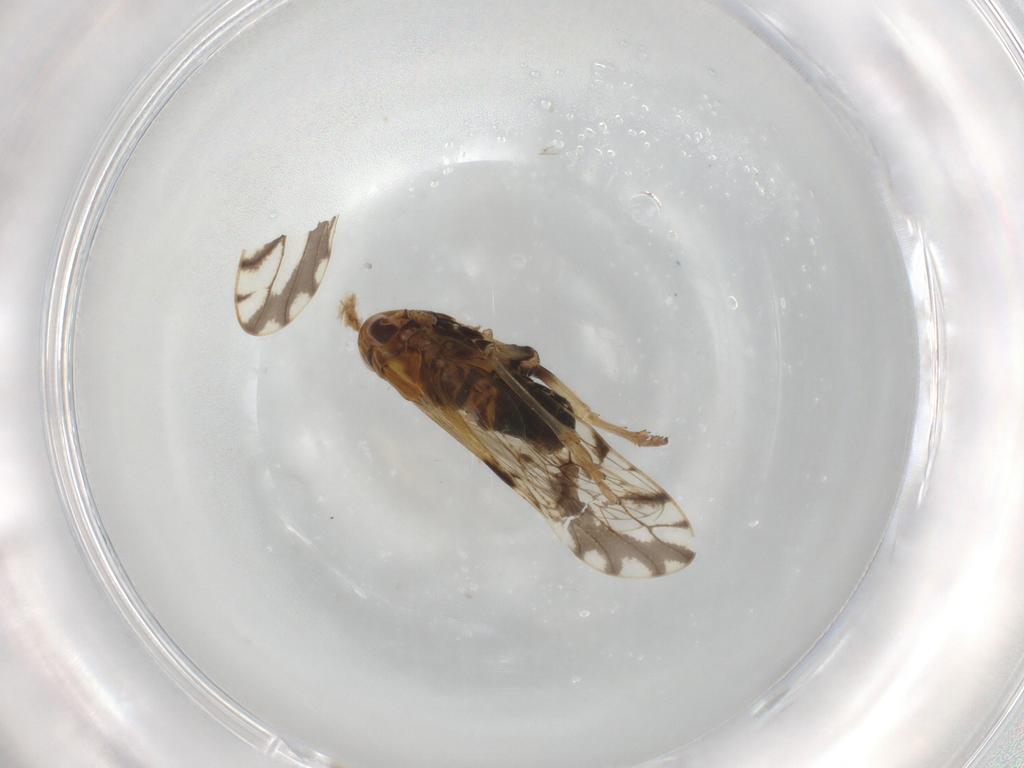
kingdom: Animalia
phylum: Arthropoda
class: Insecta
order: Hemiptera
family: Delphacidae
